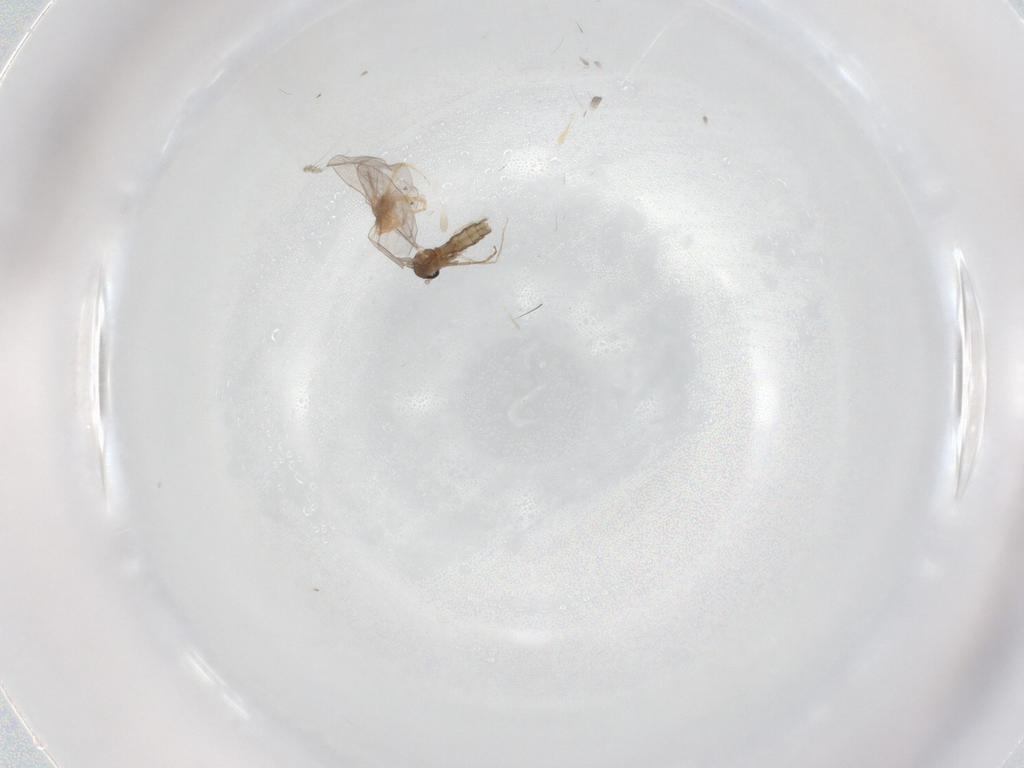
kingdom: Animalia
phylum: Arthropoda
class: Insecta
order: Diptera
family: Cecidomyiidae
